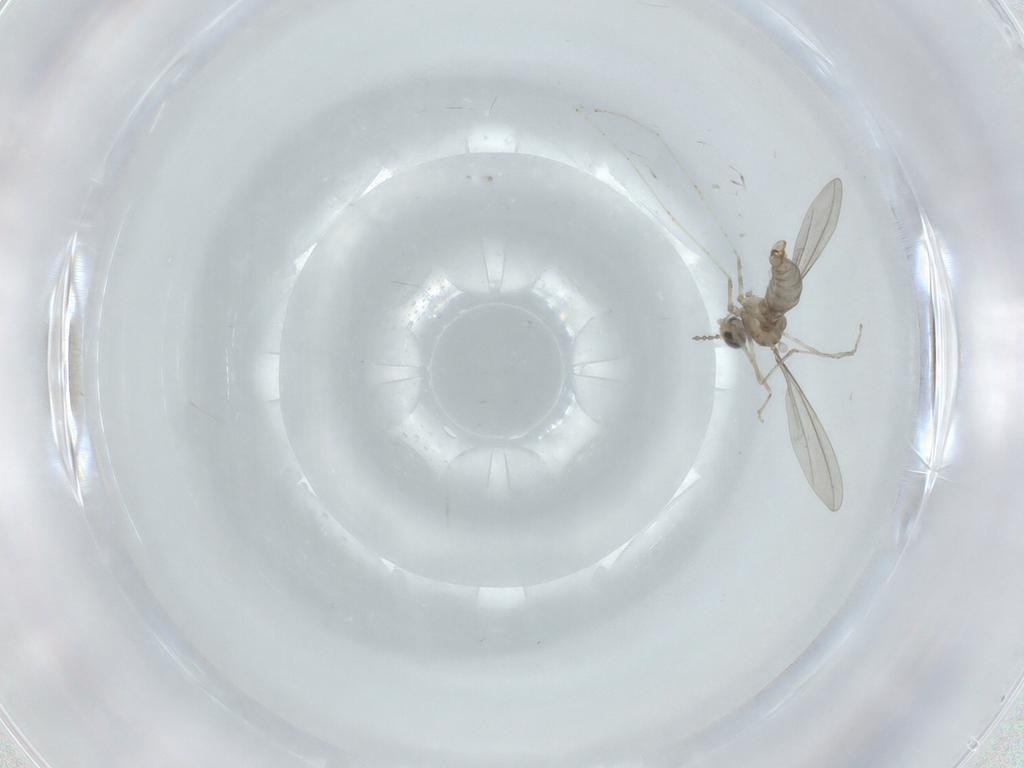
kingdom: Animalia
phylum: Arthropoda
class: Insecta
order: Diptera
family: Cecidomyiidae
